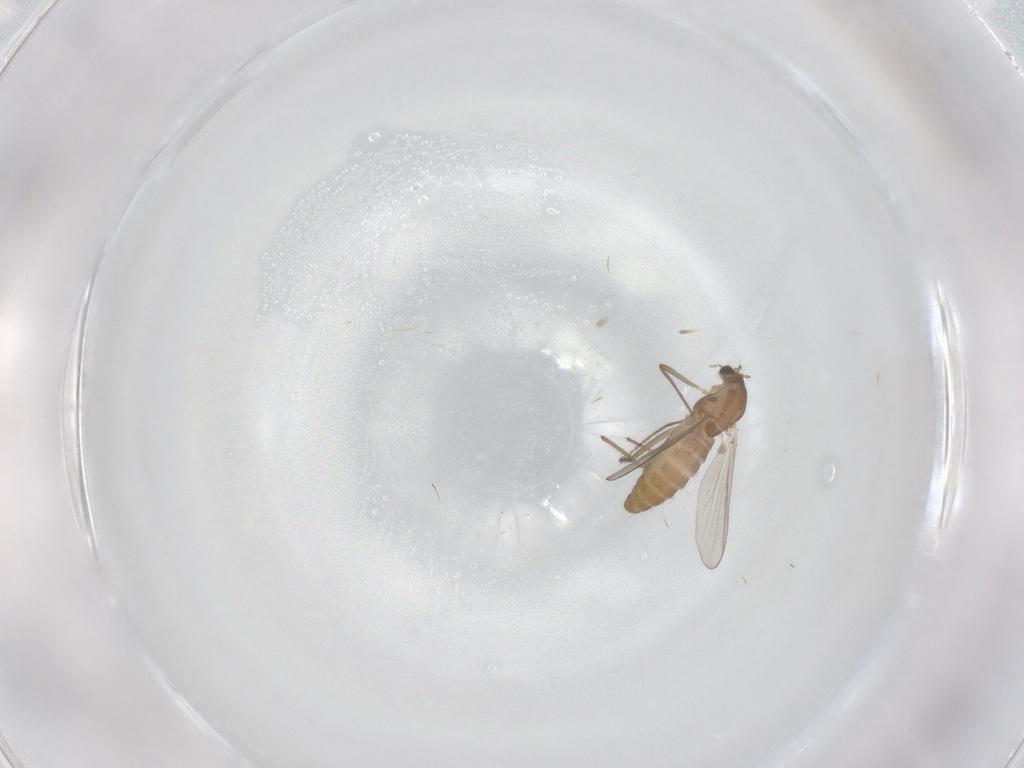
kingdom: Animalia
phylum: Arthropoda
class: Insecta
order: Diptera
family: Chironomidae
